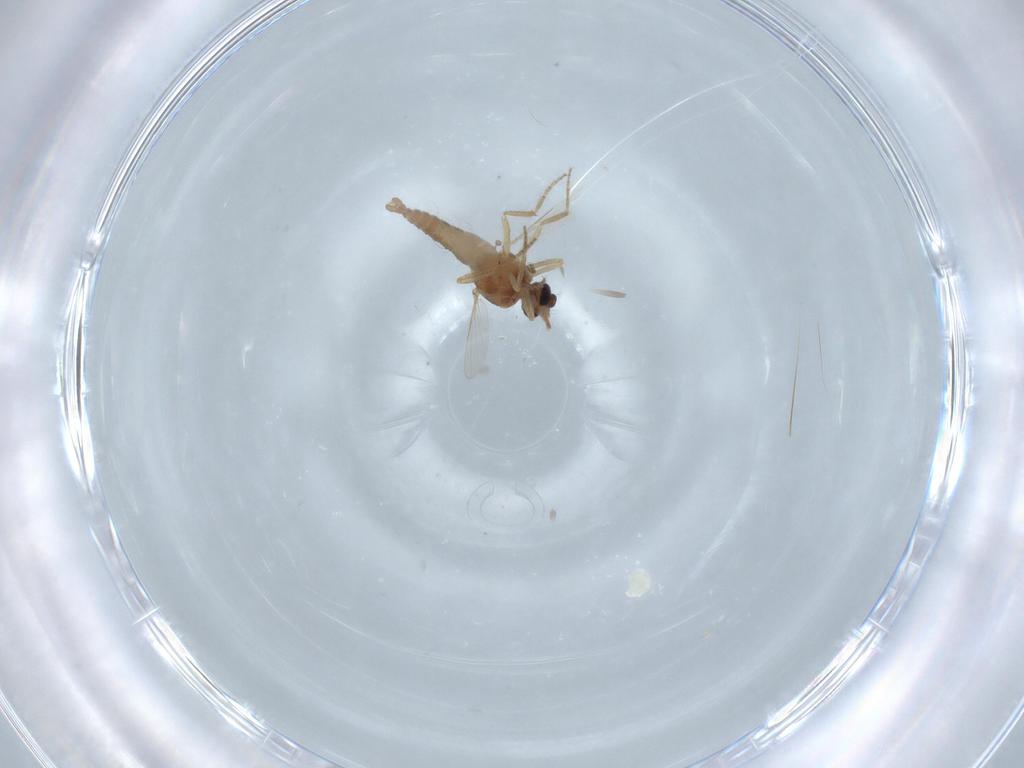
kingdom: Animalia
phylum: Arthropoda
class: Insecta
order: Diptera
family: Ceratopogonidae
